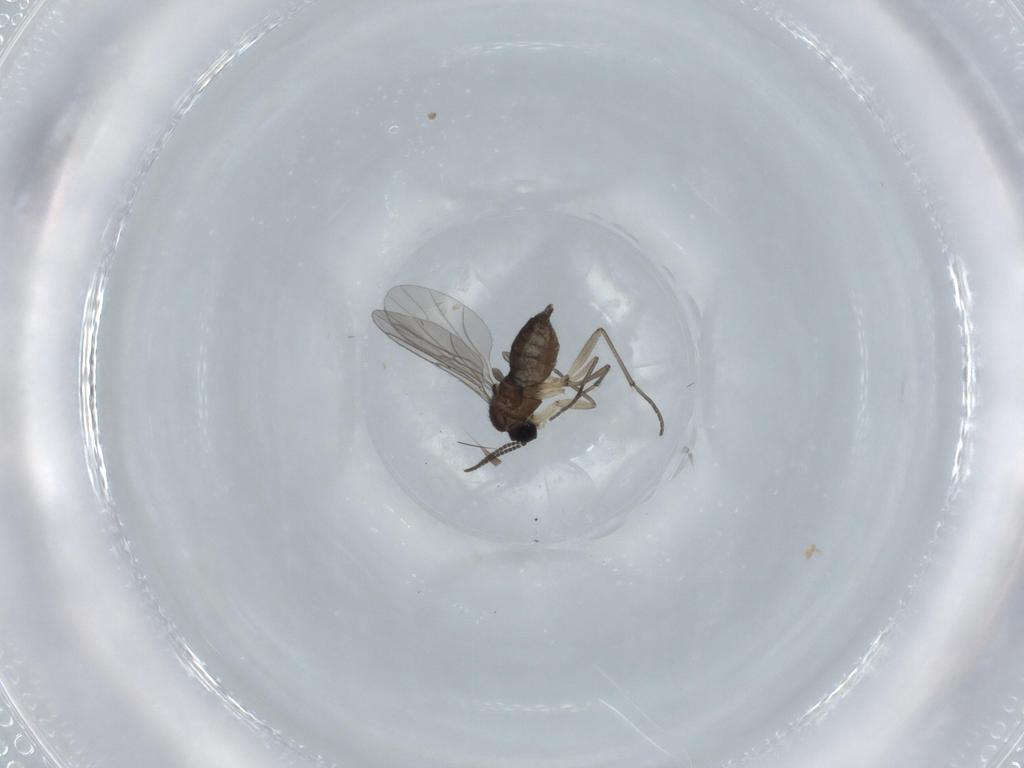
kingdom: Animalia
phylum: Arthropoda
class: Insecta
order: Diptera
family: Sciaridae
